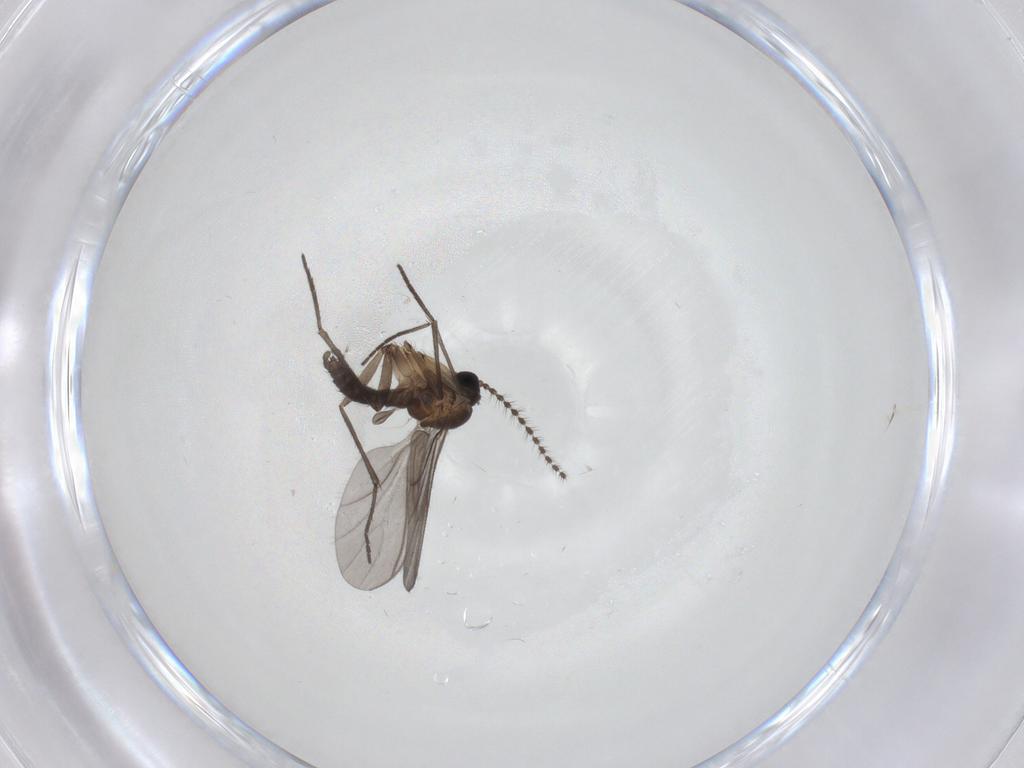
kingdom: Animalia
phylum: Arthropoda
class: Insecta
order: Diptera
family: Sciaridae
